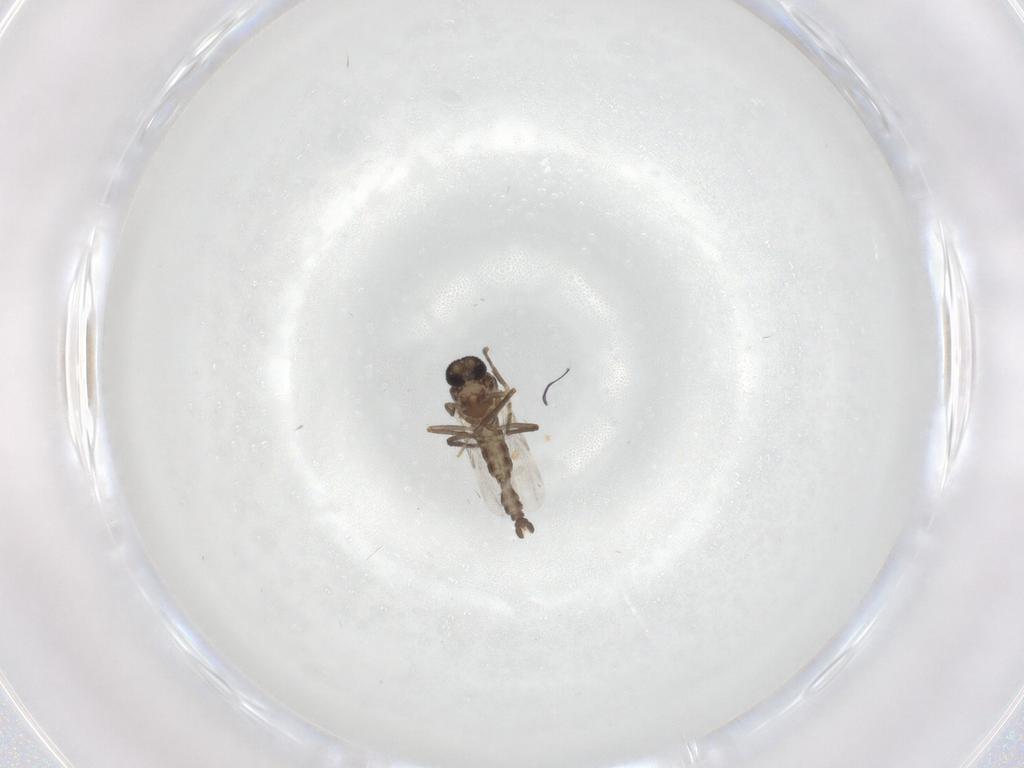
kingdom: Animalia
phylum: Arthropoda
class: Insecta
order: Diptera
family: Ceratopogonidae
